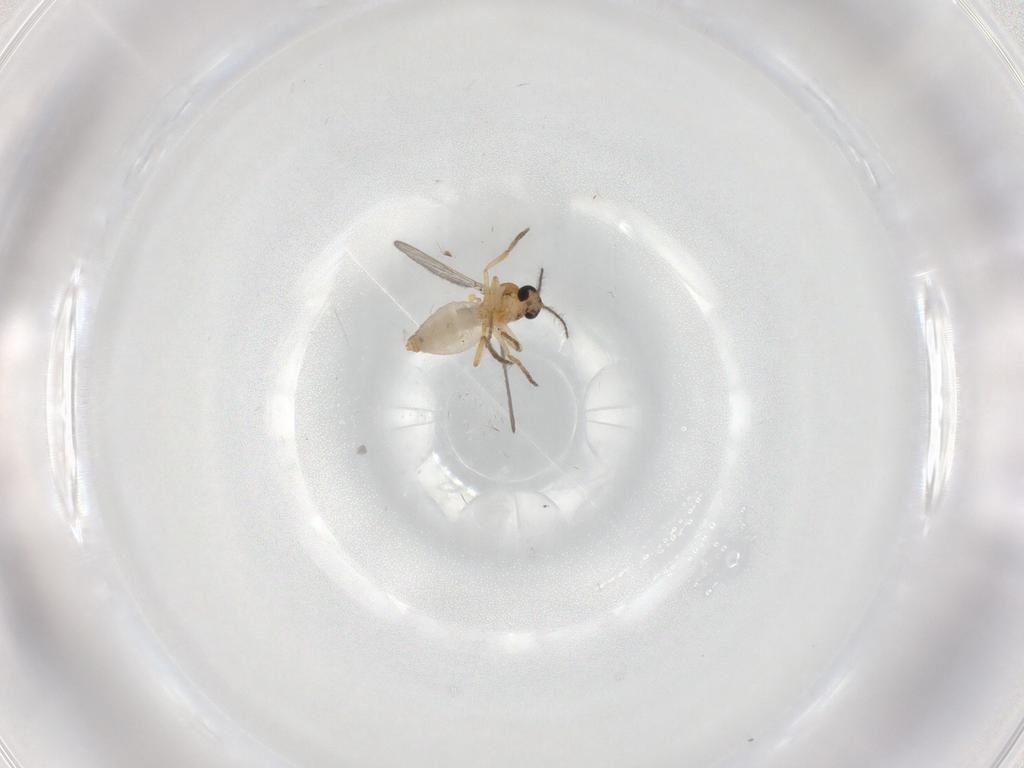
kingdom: Animalia
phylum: Arthropoda
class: Insecta
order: Diptera
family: Ceratopogonidae
